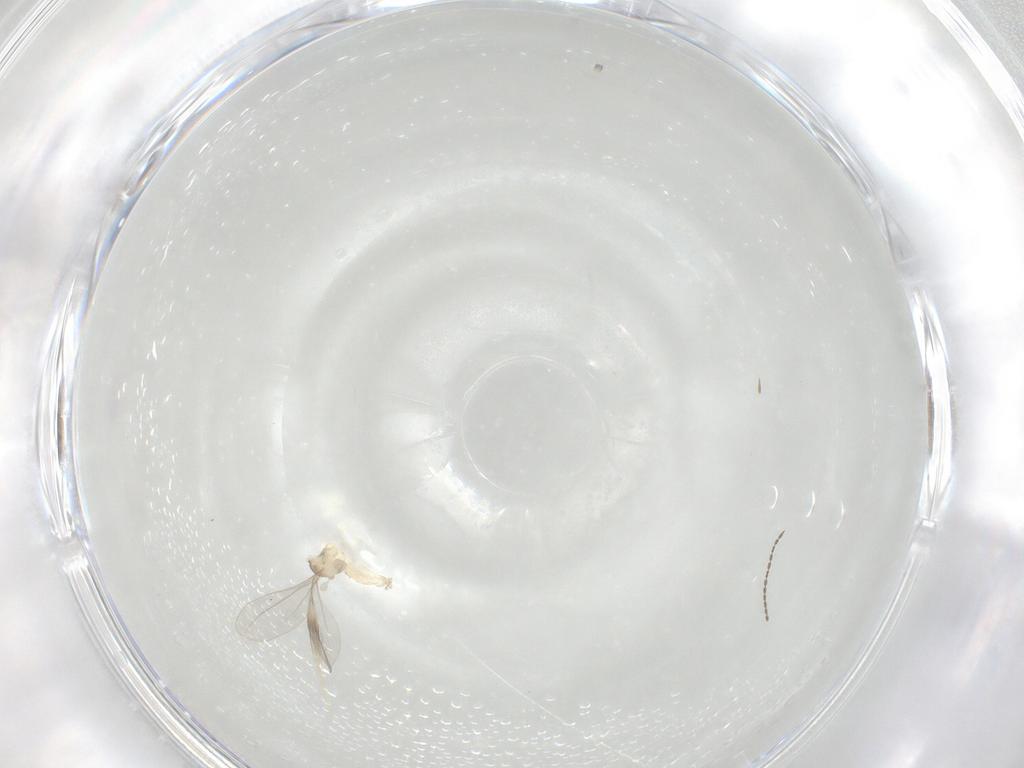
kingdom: Animalia
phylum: Arthropoda
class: Insecta
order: Diptera
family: Cecidomyiidae
